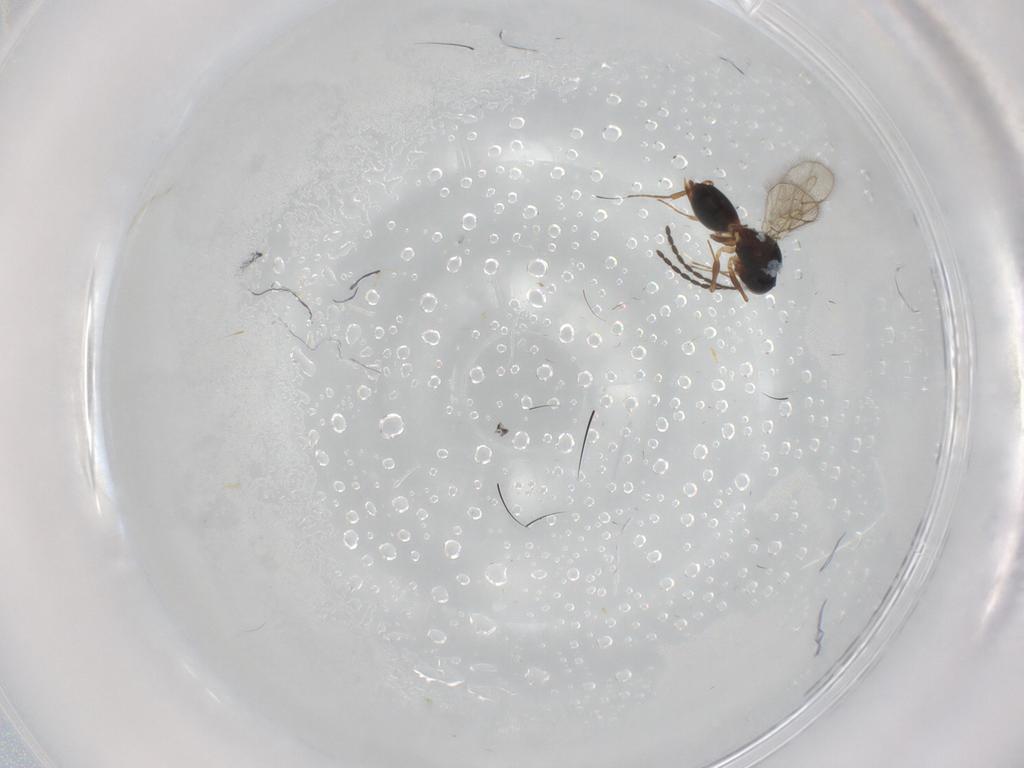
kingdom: Animalia
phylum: Arthropoda
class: Insecta
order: Hymenoptera
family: Figitidae
